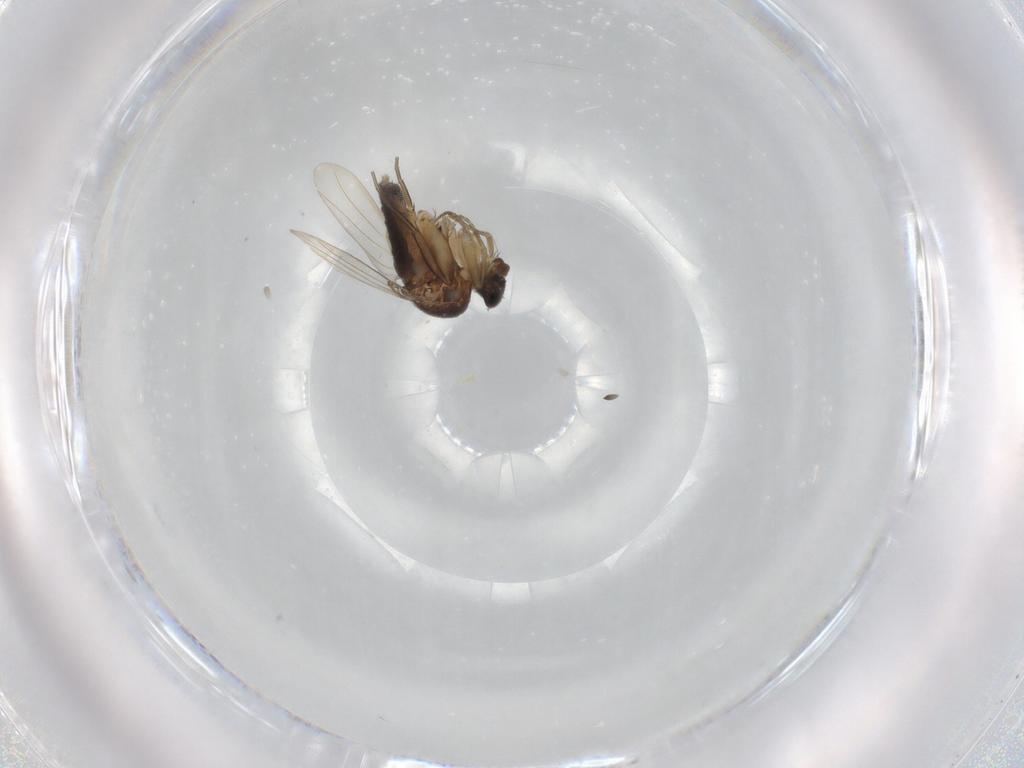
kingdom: Animalia
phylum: Arthropoda
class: Insecta
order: Diptera
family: Phoridae
